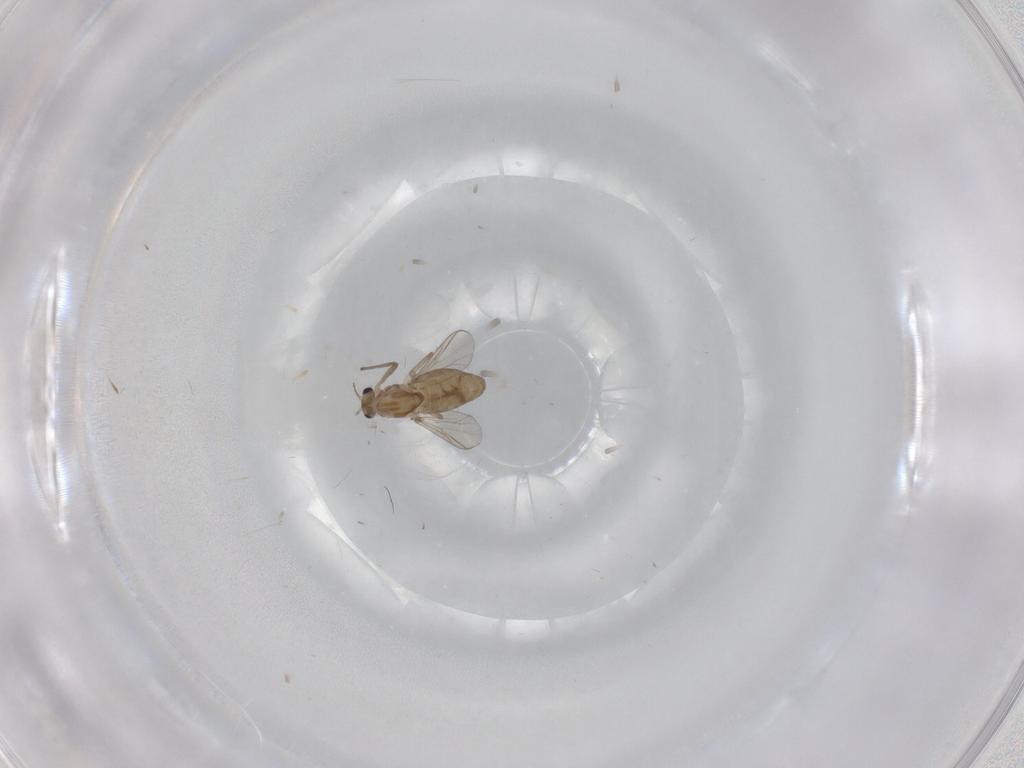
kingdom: Animalia
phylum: Arthropoda
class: Insecta
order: Diptera
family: Chironomidae
